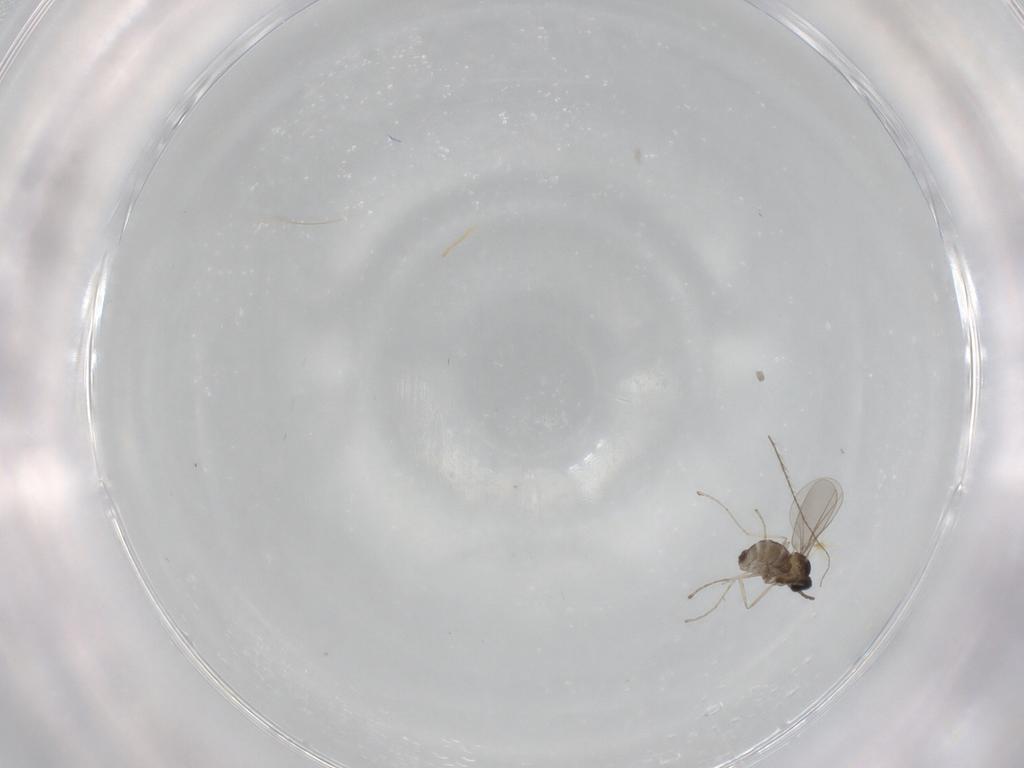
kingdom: Animalia
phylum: Arthropoda
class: Insecta
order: Diptera
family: Cecidomyiidae
